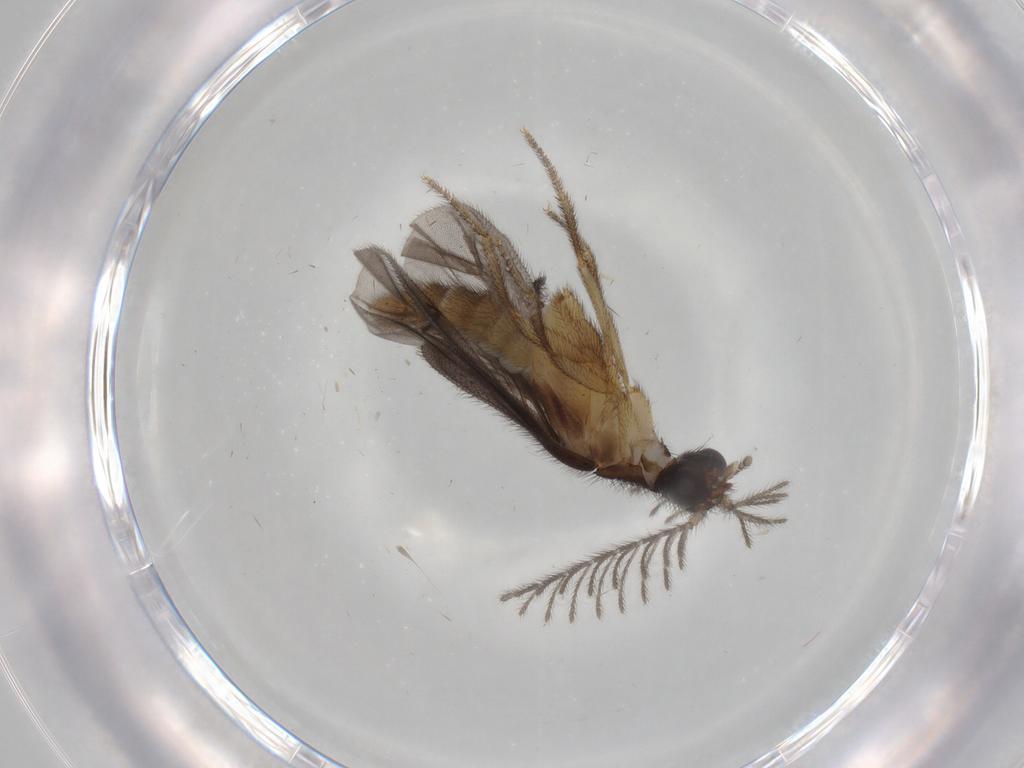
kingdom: Animalia
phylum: Arthropoda
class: Insecta
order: Coleoptera
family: Phengodidae
